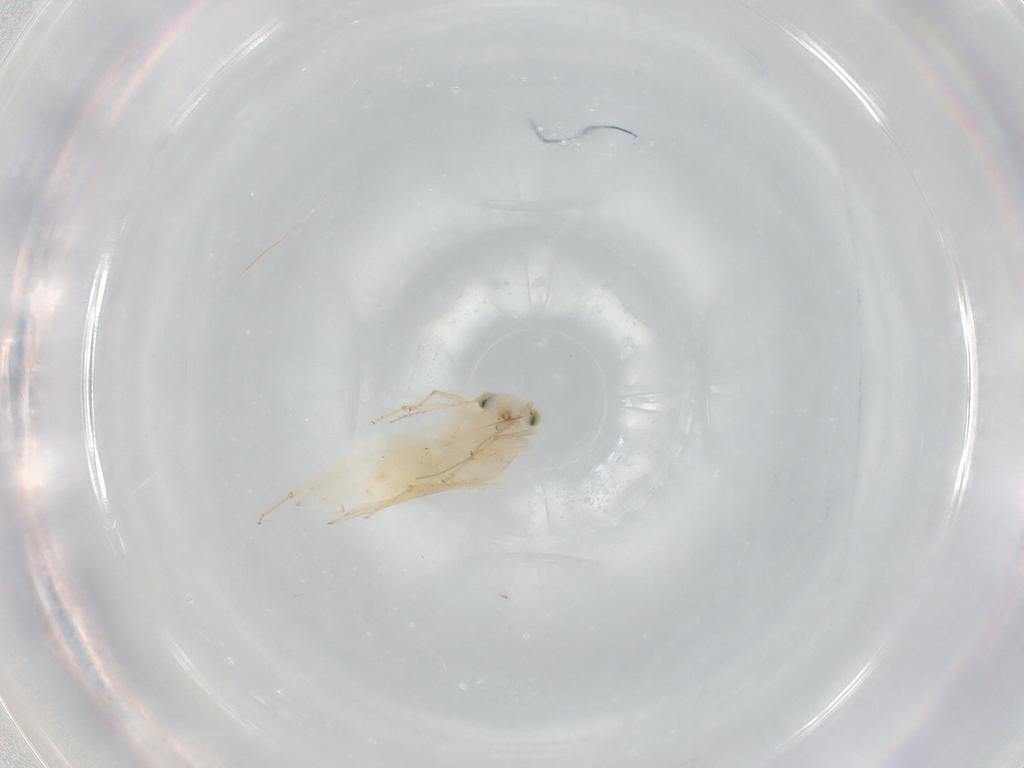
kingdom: Animalia
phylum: Arthropoda
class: Insecta
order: Psocodea
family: Lepidopsocidae
